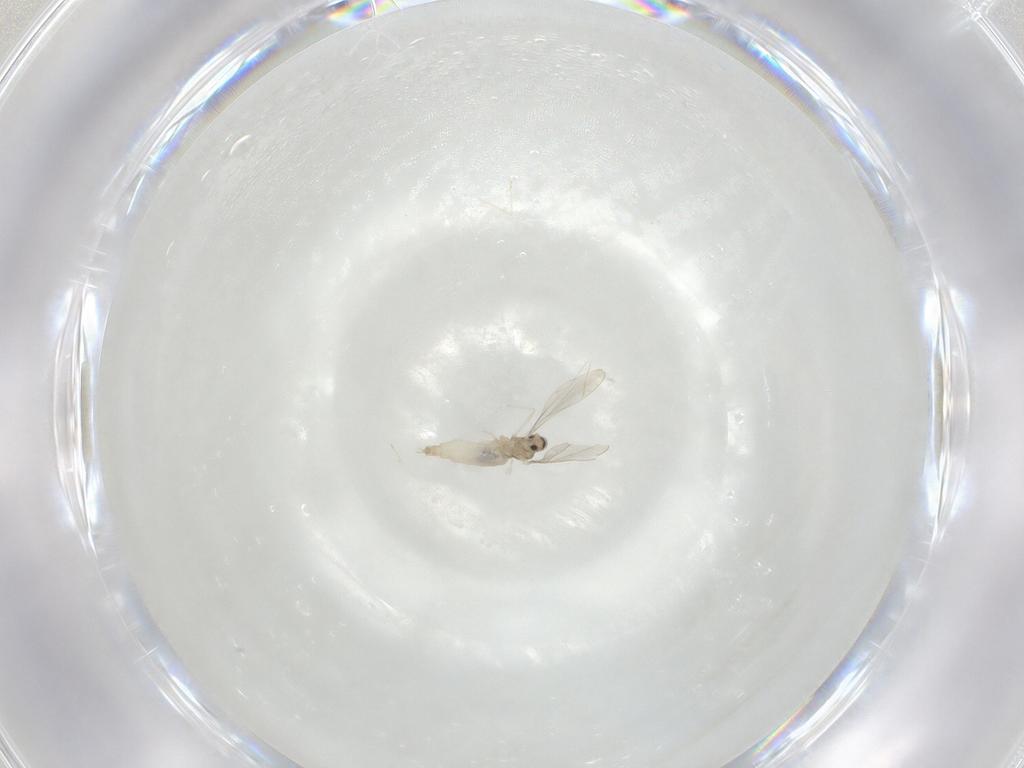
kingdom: Animalia
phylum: Arthropoda
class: Insecta
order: Diptera
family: Cecidomyiidae
